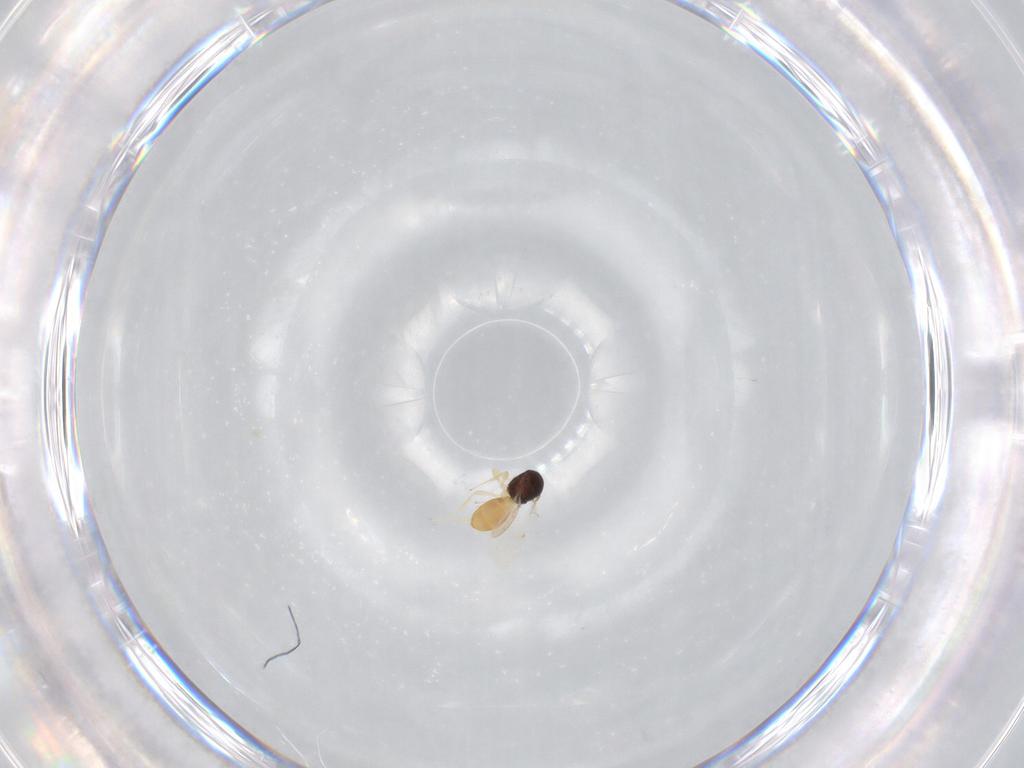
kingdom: Animalia
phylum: Arthropoda
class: Insecta
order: Hymenoptera
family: Scelionidae
